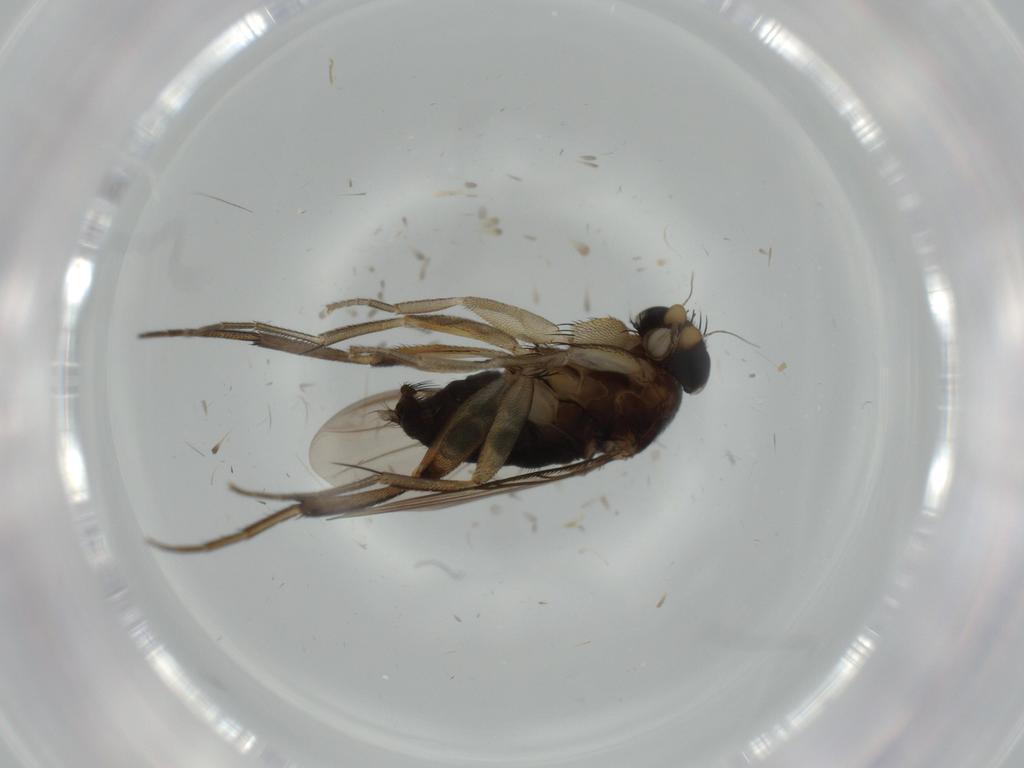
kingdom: Animalia
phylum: Arthropoda
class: Insecta
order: Diptera
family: Phoridae
